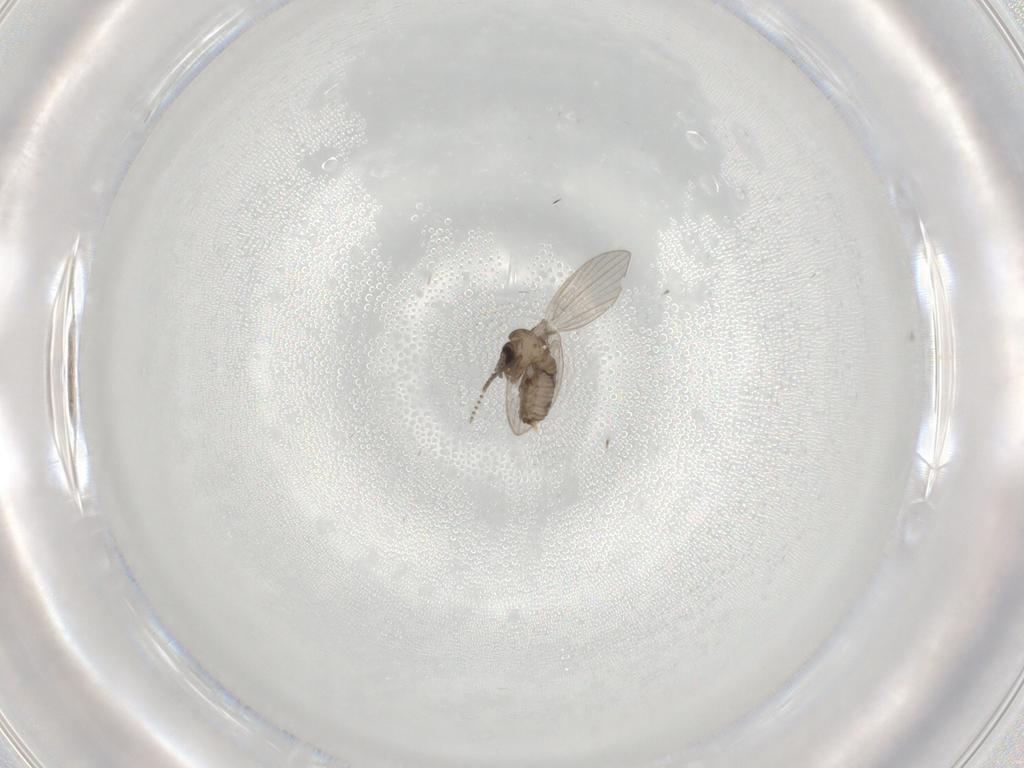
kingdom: Animalia
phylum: Arthropoda
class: Insecta
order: Diptera
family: Psychodidae
